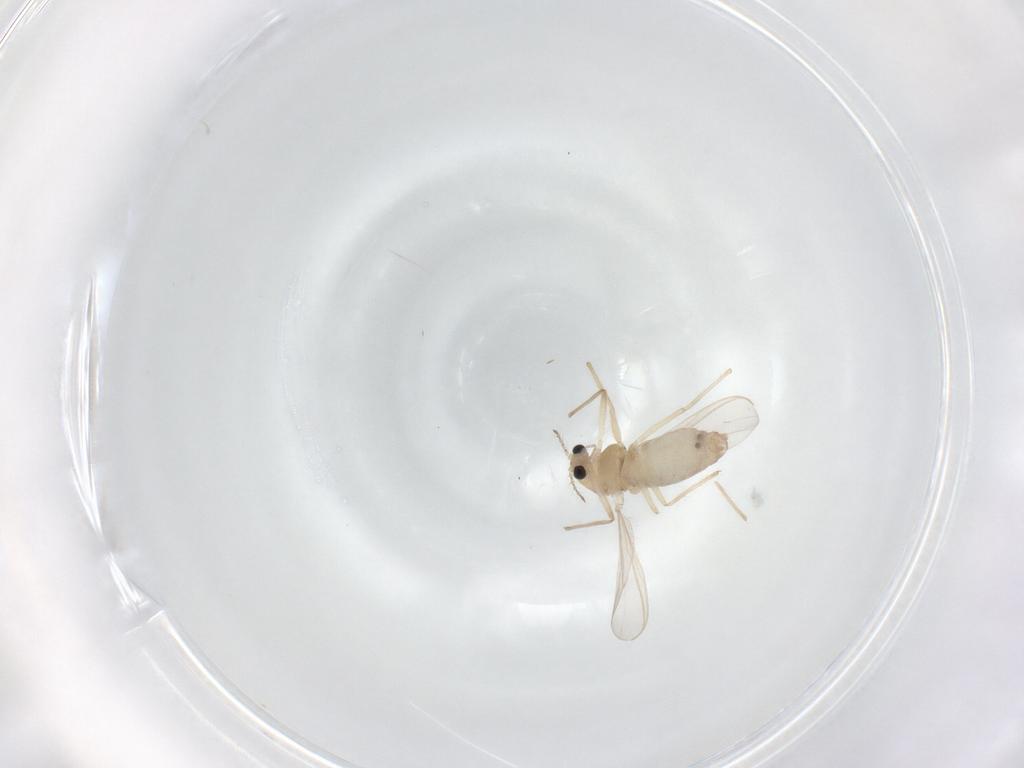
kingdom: Animalia
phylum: Arthropoda
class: Insecta
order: Diptera
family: Chironomidae
